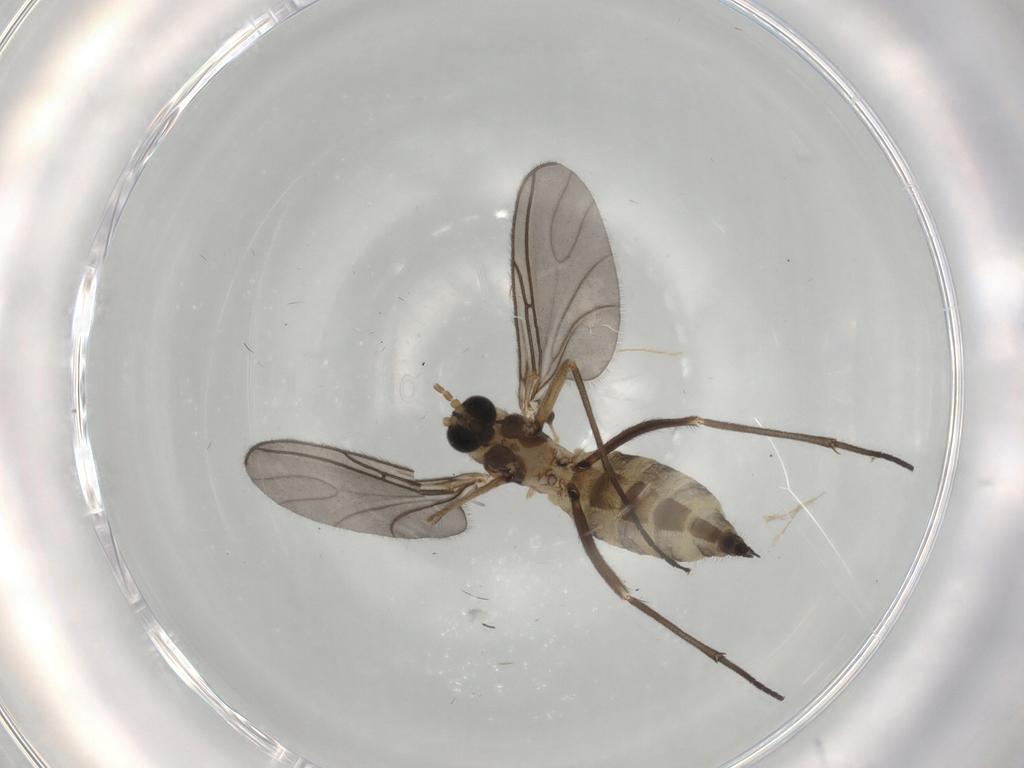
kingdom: Animalia
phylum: Arthropoda
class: Insecta
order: Diptera
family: Sciaridae
